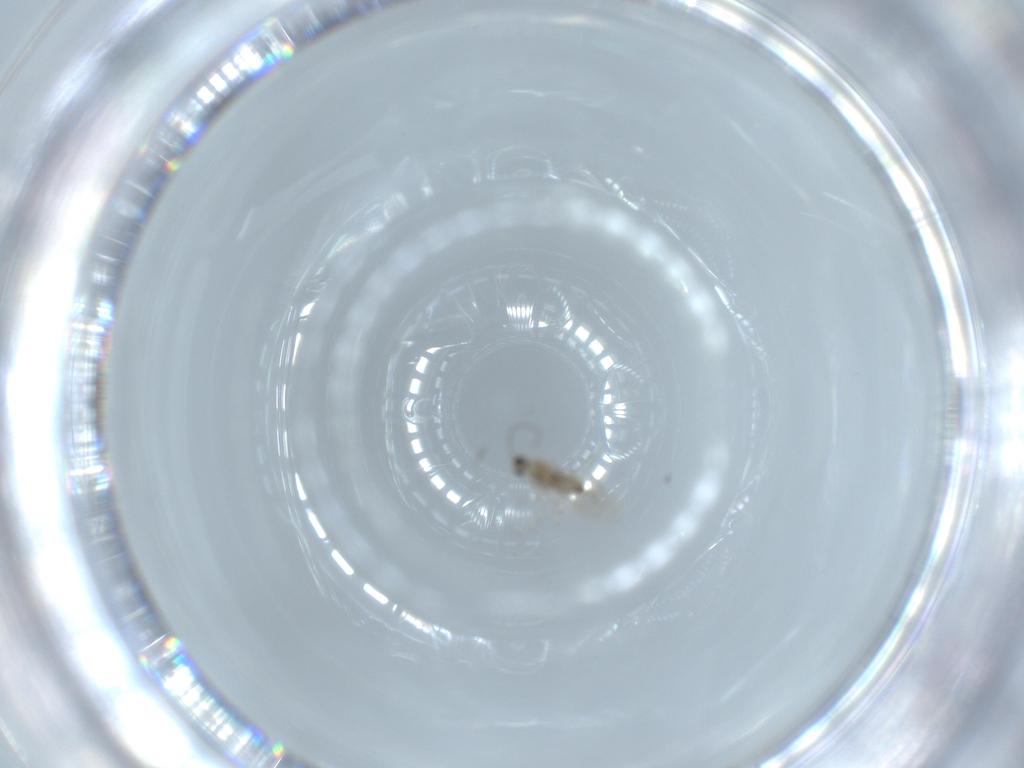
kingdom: Animalia
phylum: Arthropoda
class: Insecta
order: Diptera
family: Cecidomyiidae
